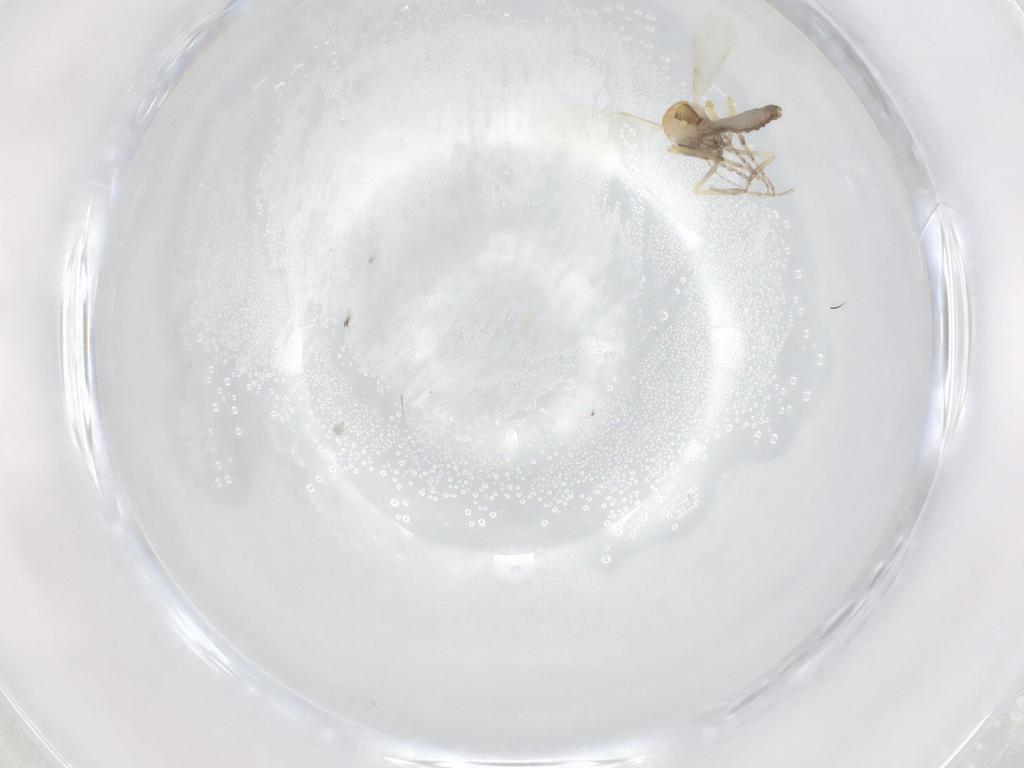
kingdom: Animalia
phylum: Arthropoda
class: Insecta
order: Diptera
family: Ceratopogonidae
